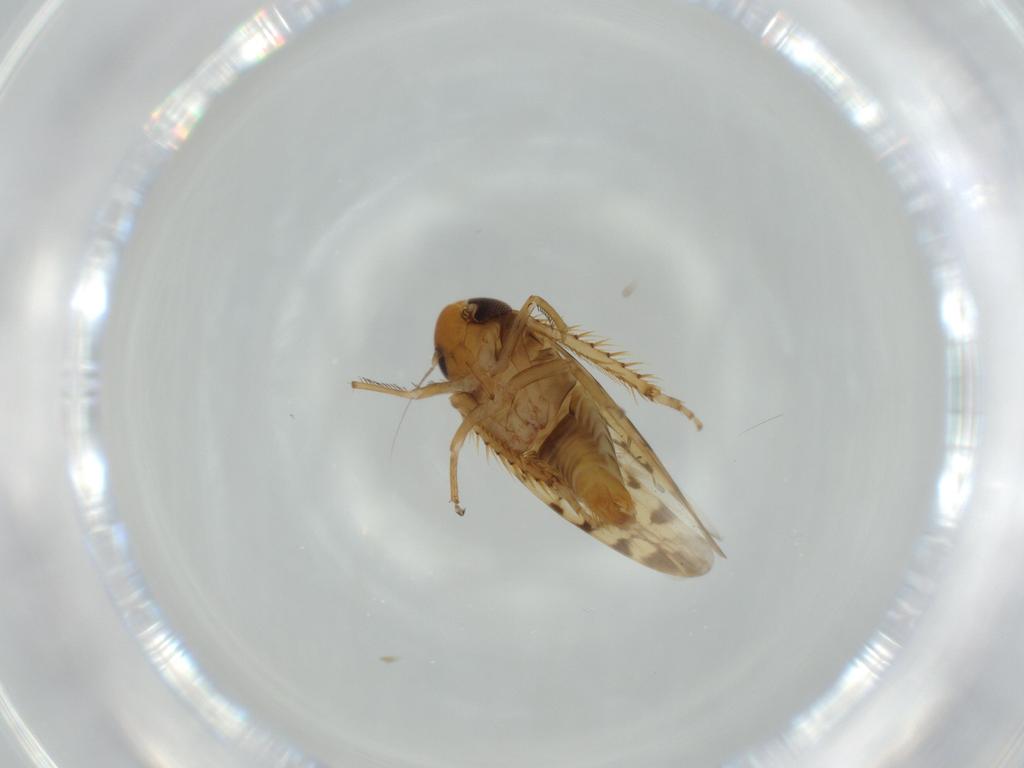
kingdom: Animalia
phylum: Arthropoda
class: Insecta
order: Hemiptera
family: Cicadellidae
